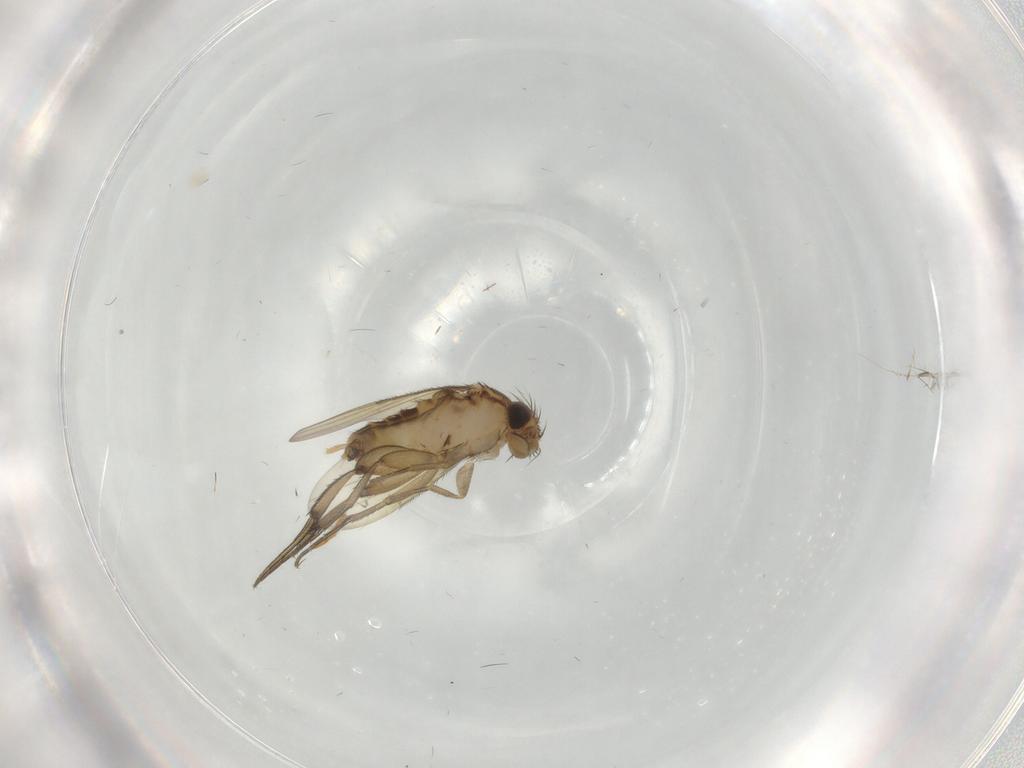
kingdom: Animalia
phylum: Arthropoda
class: Insecta
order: Diptera
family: Phoridae
